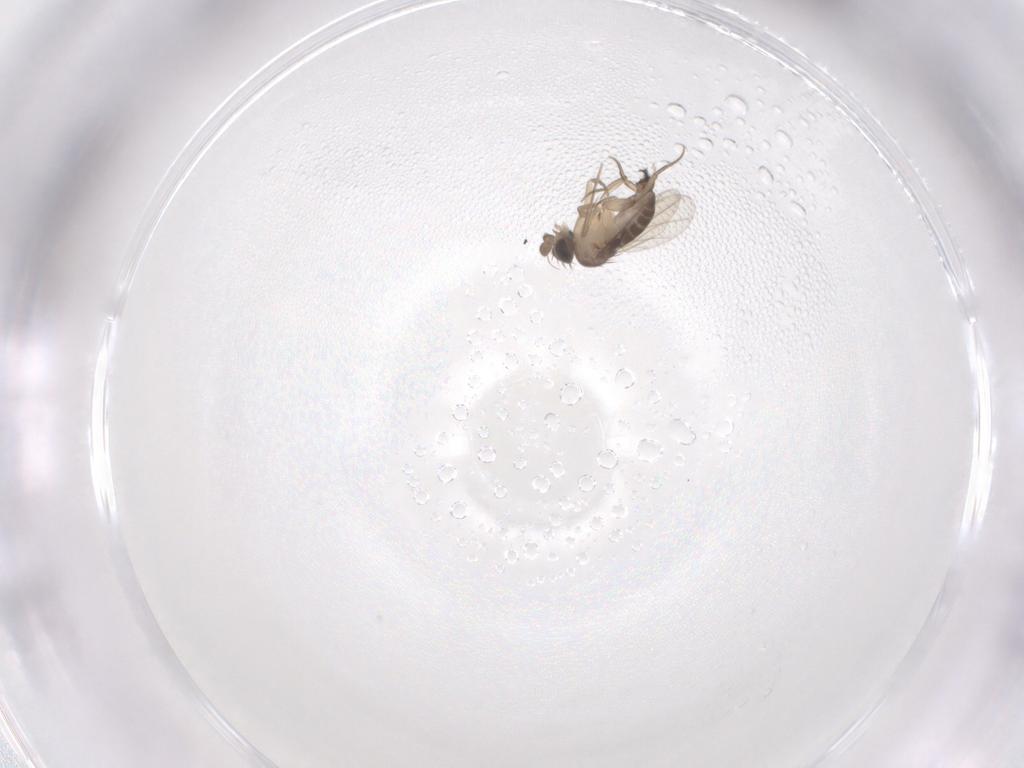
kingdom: Animalia
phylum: Arthropoda
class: Insecta
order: Diptera
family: Phoridae
